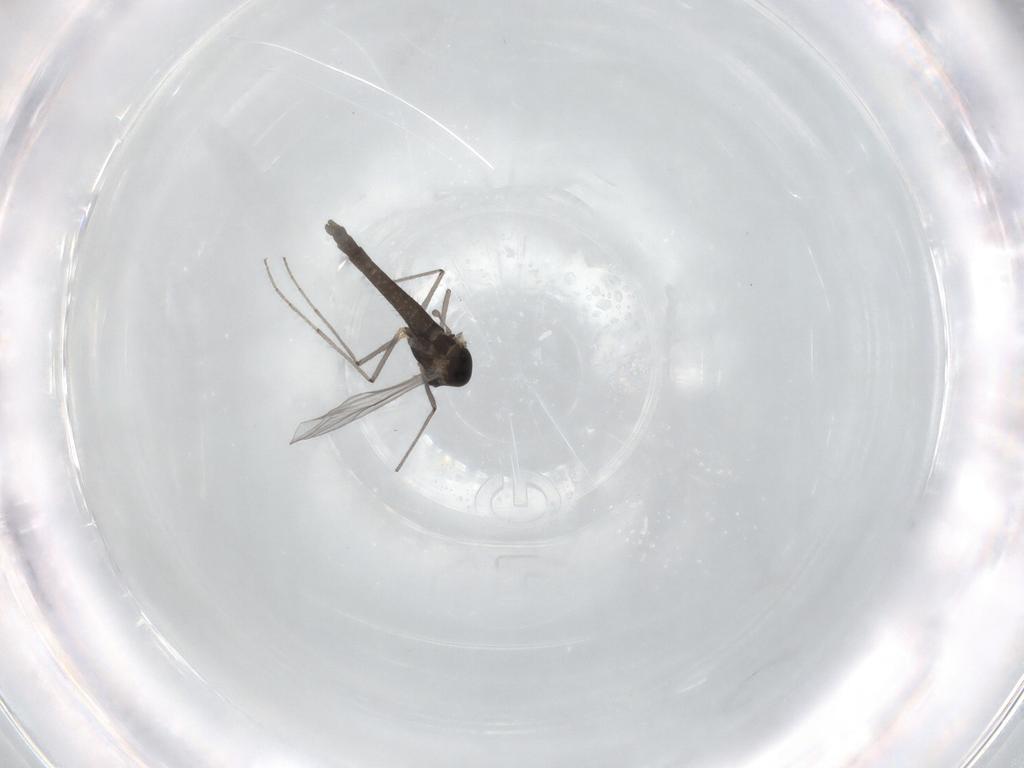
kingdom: Animalia
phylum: Arthropoda
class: Insecta
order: Diptera
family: Chironomidae
